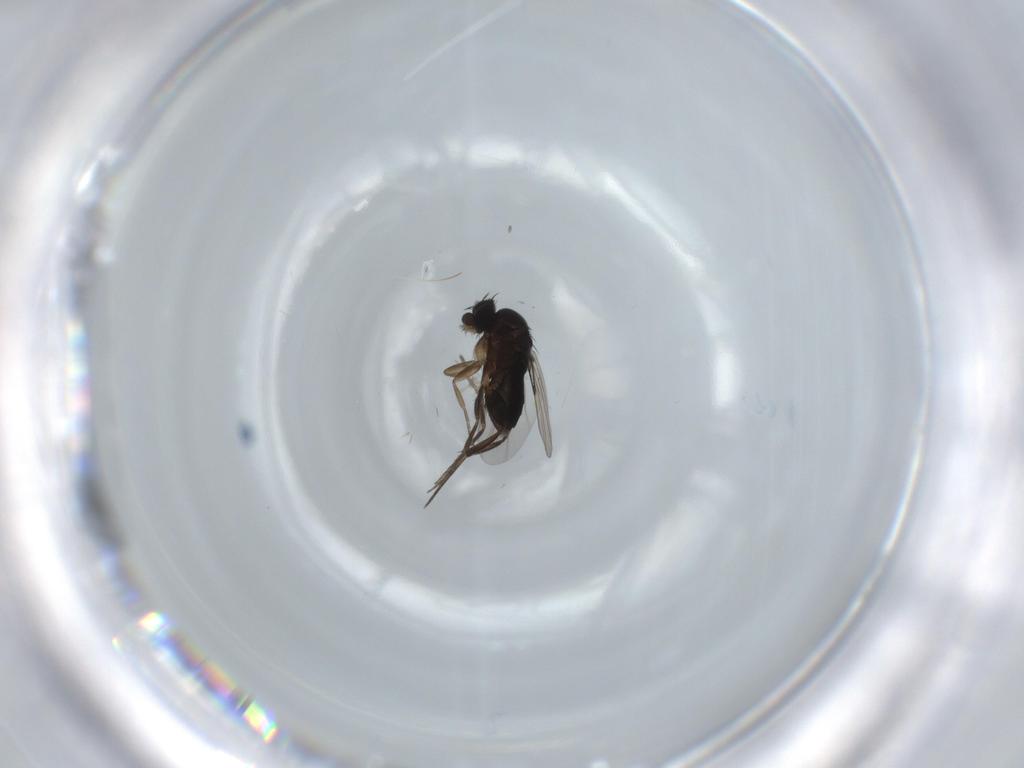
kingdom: Animalia
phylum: Arthropoda
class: Insecta
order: Diptera
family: Phoridae
